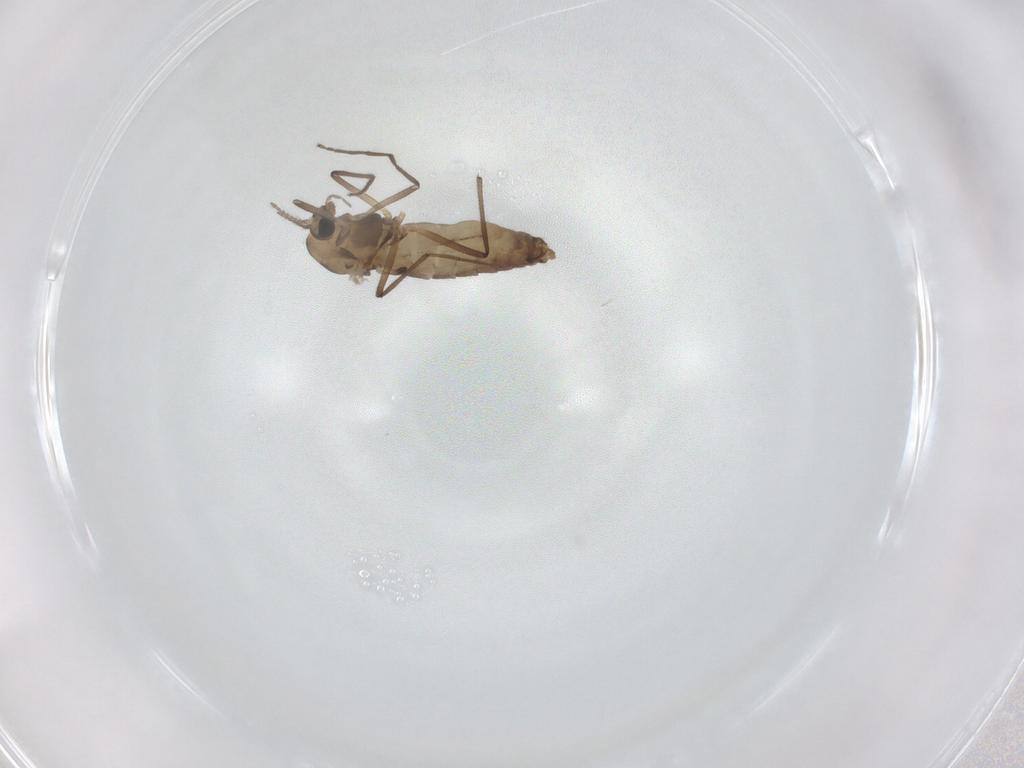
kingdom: Animalia
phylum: Arthropoda
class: Insecta
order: Diptera
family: Chironomidae
